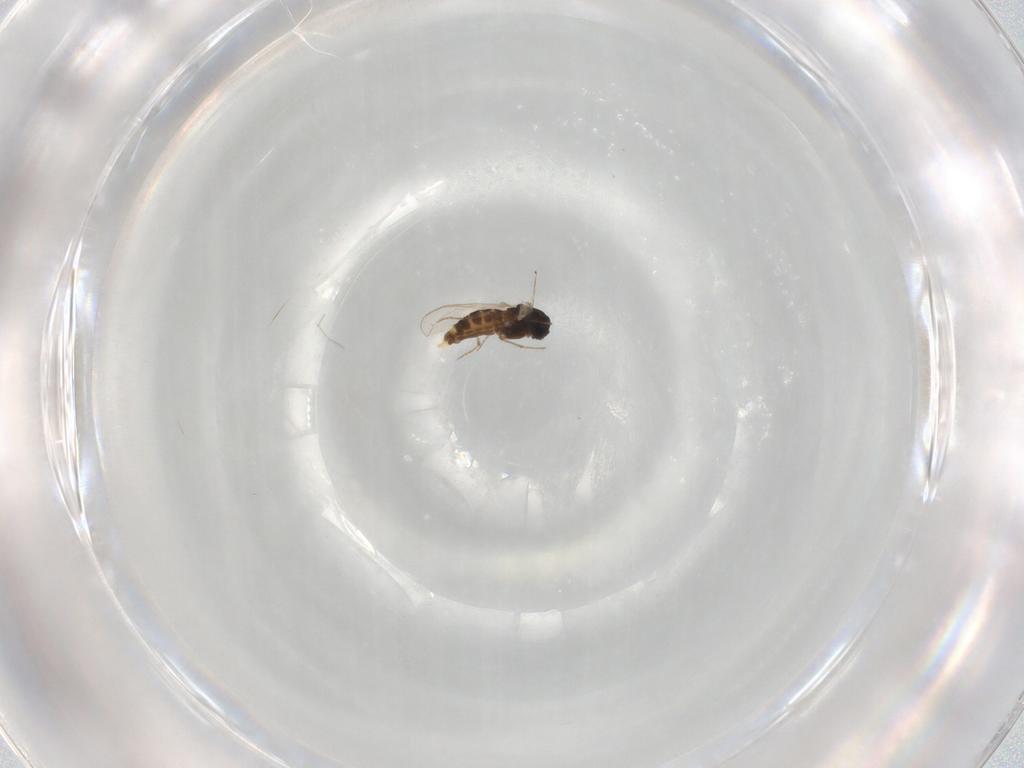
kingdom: Animalia
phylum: Arthropoda
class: Insecta
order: Diptera
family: Chironomidae
